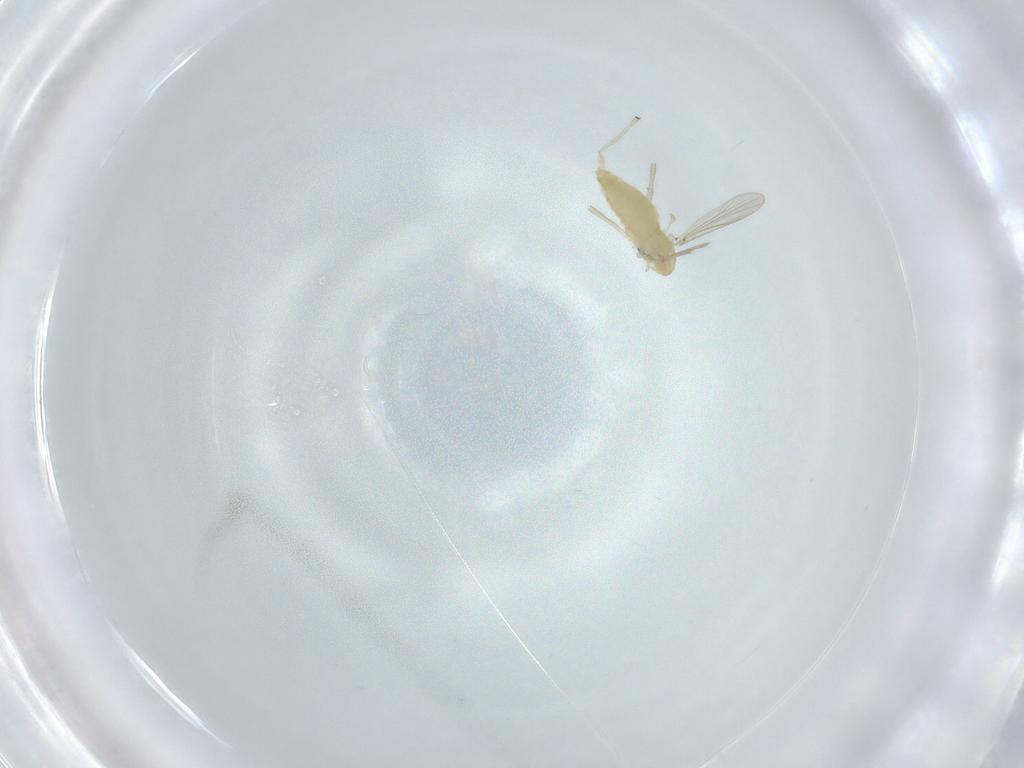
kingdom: Animalia
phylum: Arthropoda
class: Insecta
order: Diptera
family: Chironomidae
